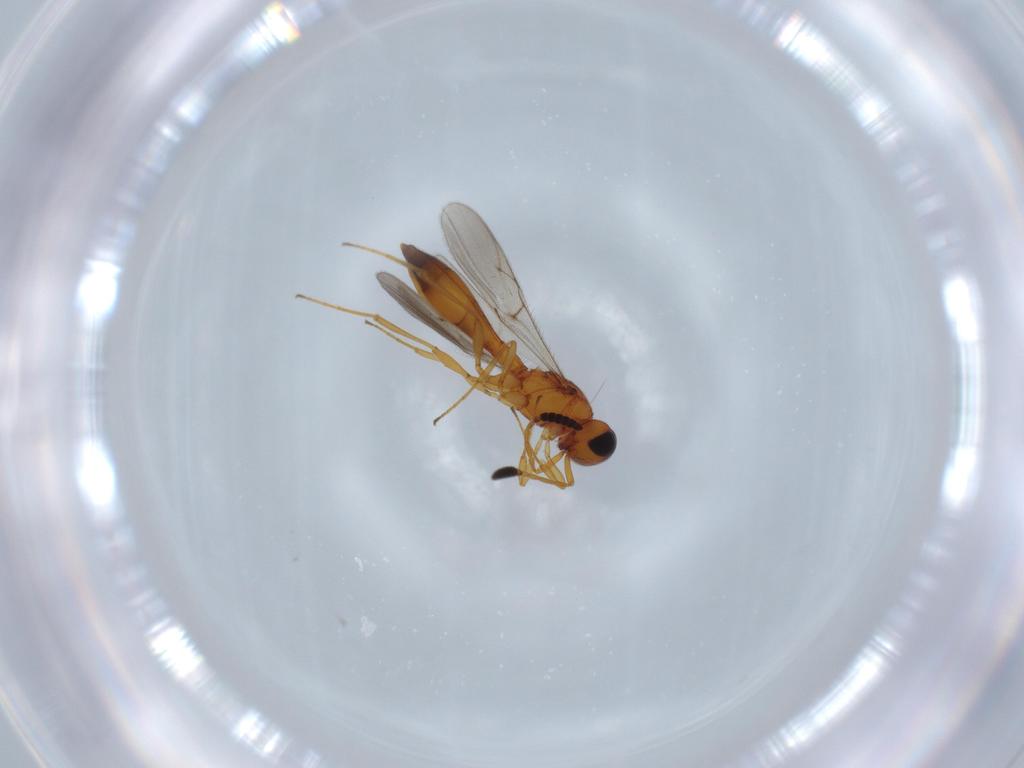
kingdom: Animalia
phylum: Arthropoda
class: Insecta
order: Hymenoptera
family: Scelionidae
